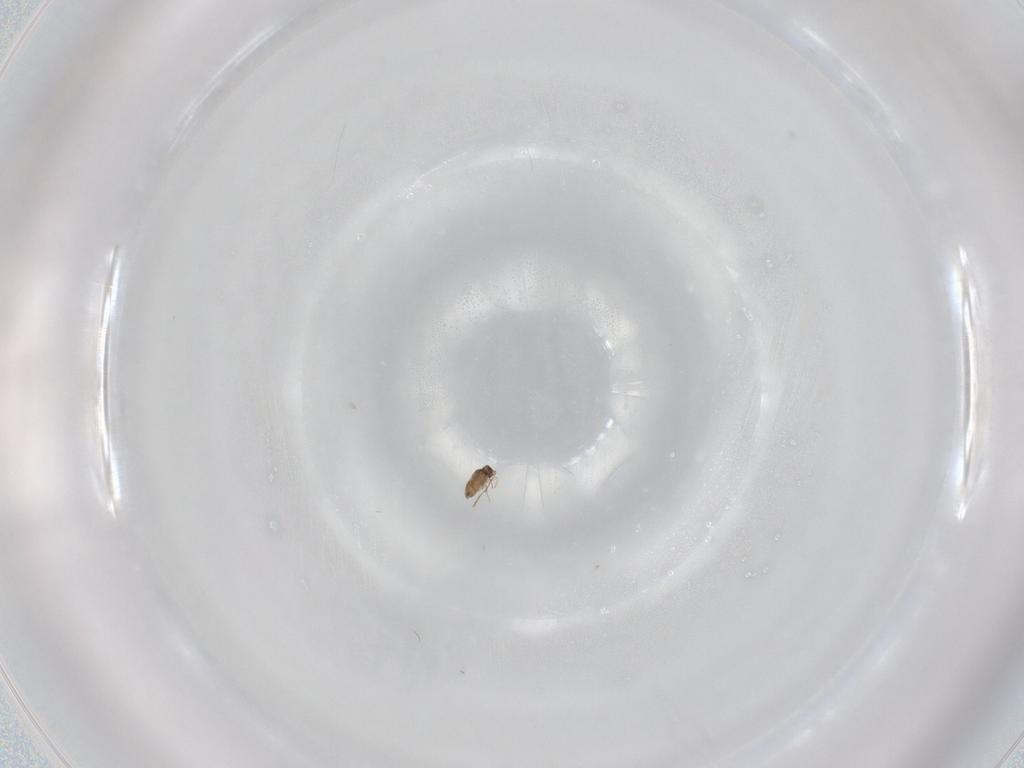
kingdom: Animalia
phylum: Arthropoda
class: Insecta
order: Hymenoptera
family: Mymaridae
